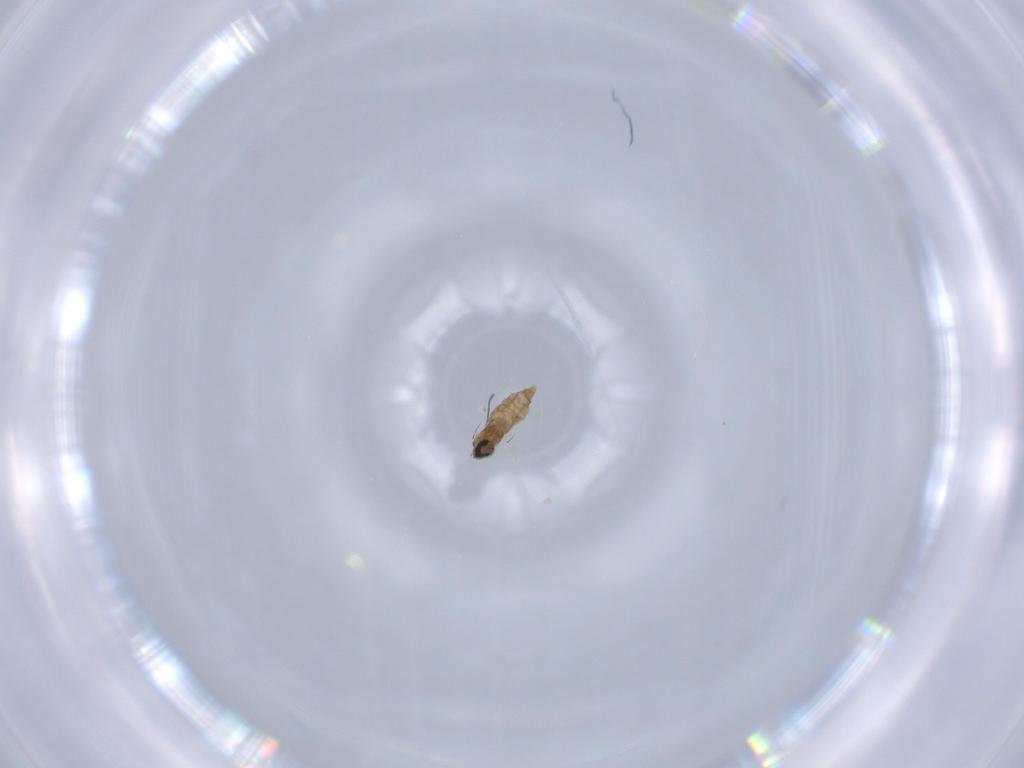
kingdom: Animalia
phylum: Arthropoda
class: Insecta
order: Diptera
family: Cecidomyiidae
